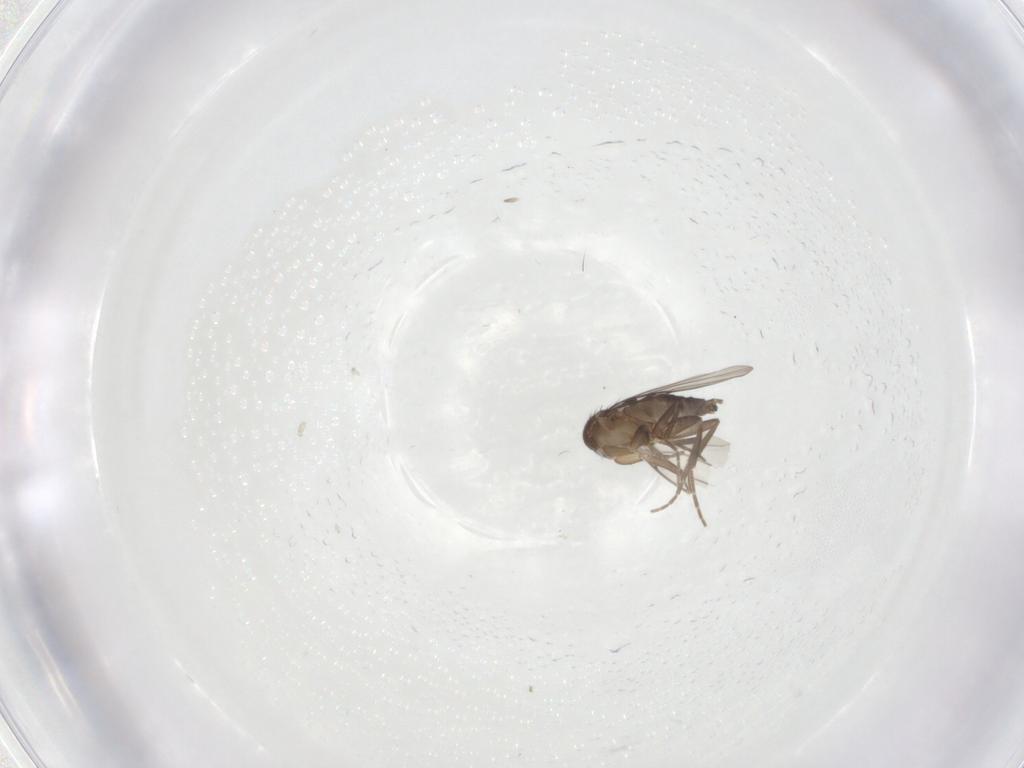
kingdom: Animalia
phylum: Arthropoda
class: Insecta
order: Diptera
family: Phoridae
